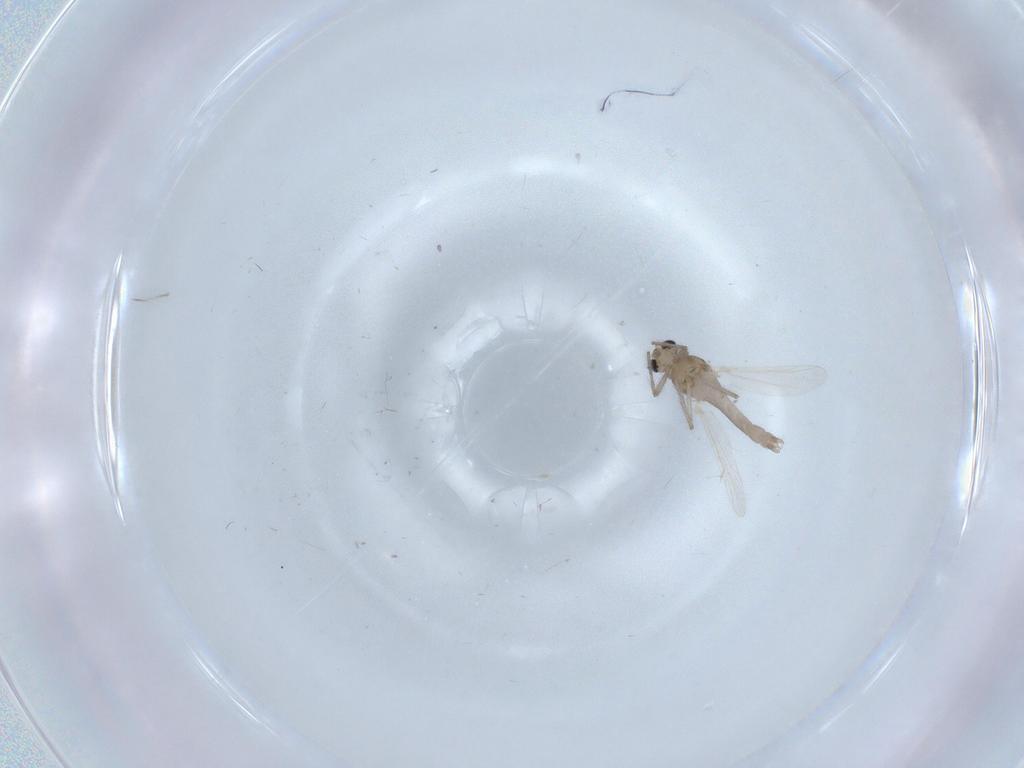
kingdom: Animalia
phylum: Arthropoda
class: Insecta
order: Diptera
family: Chironomidae
